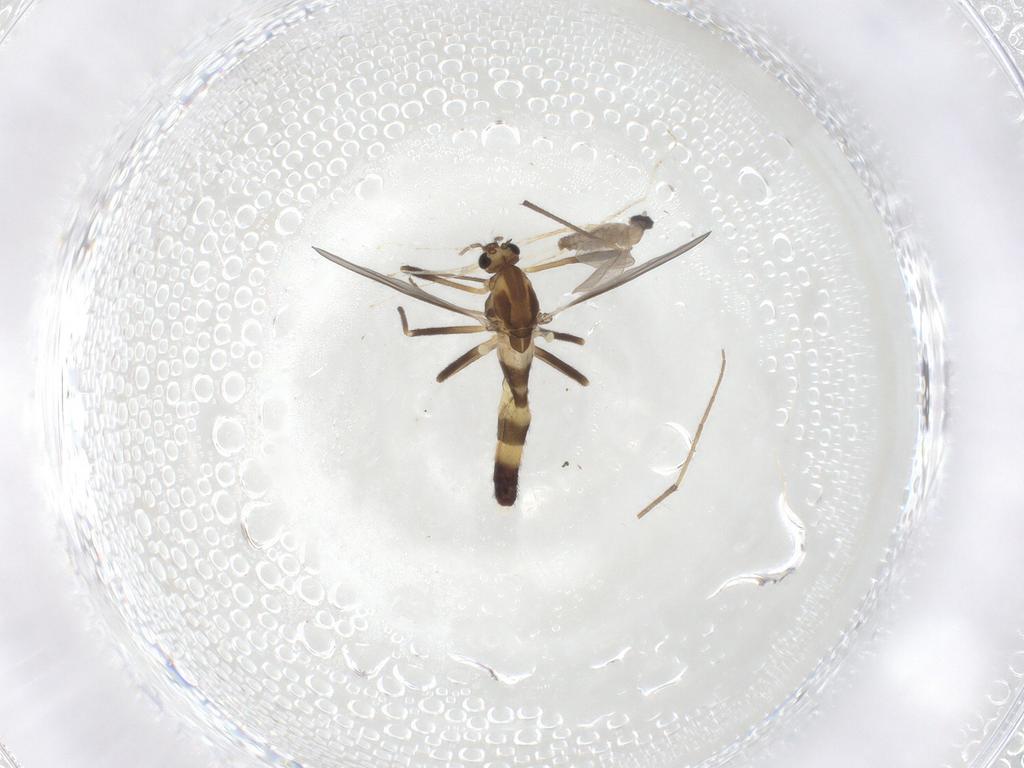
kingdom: Animalia
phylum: Arthropoda
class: Insecta
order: Diptera
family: Chironomidae
